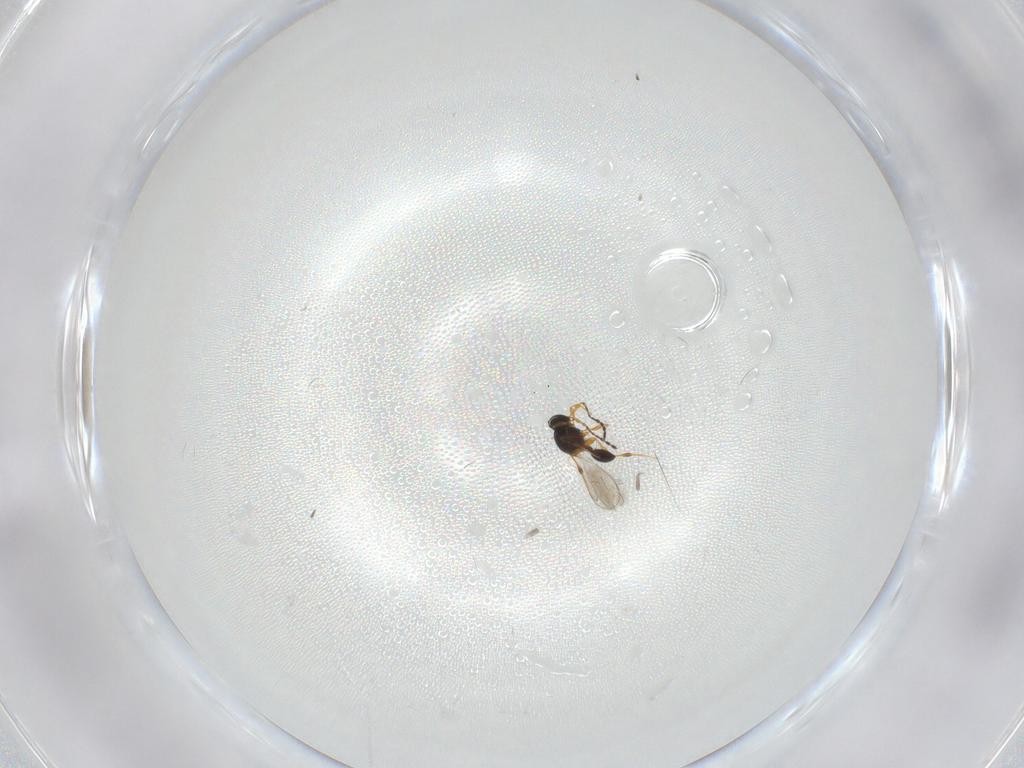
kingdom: Animalia
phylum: Arthropoda
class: Insecta
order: Hymenoptera
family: Platygastridae
